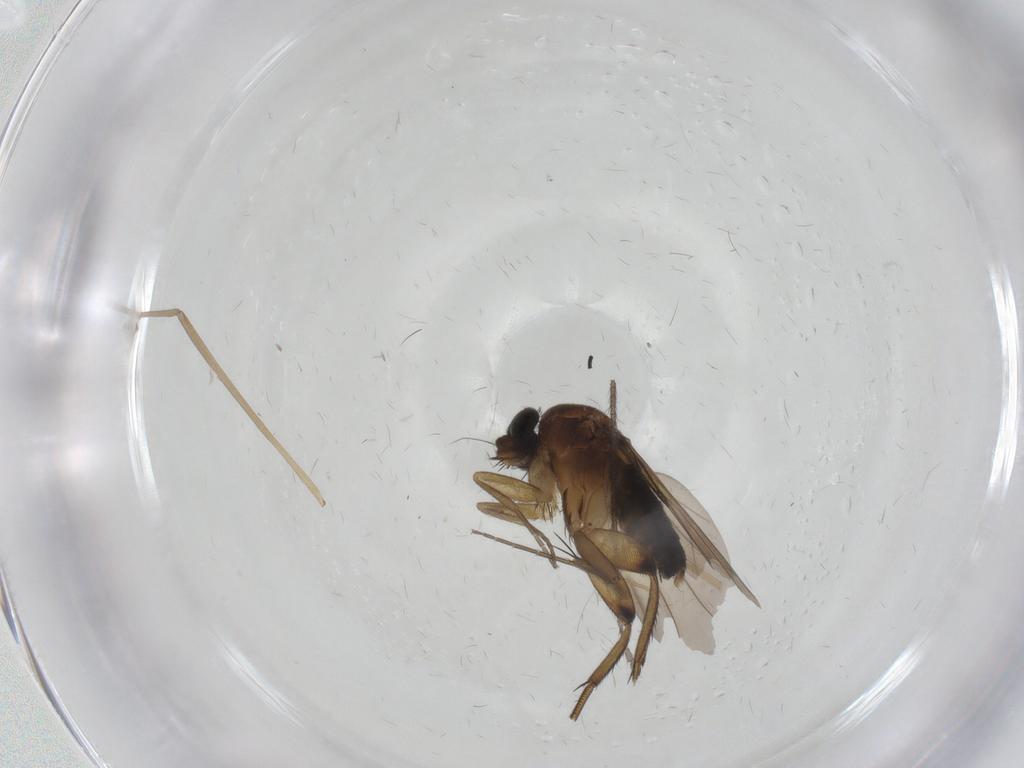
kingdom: Animalia
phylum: Arthropoda
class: Insecta
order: Diptera
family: Phoridae
